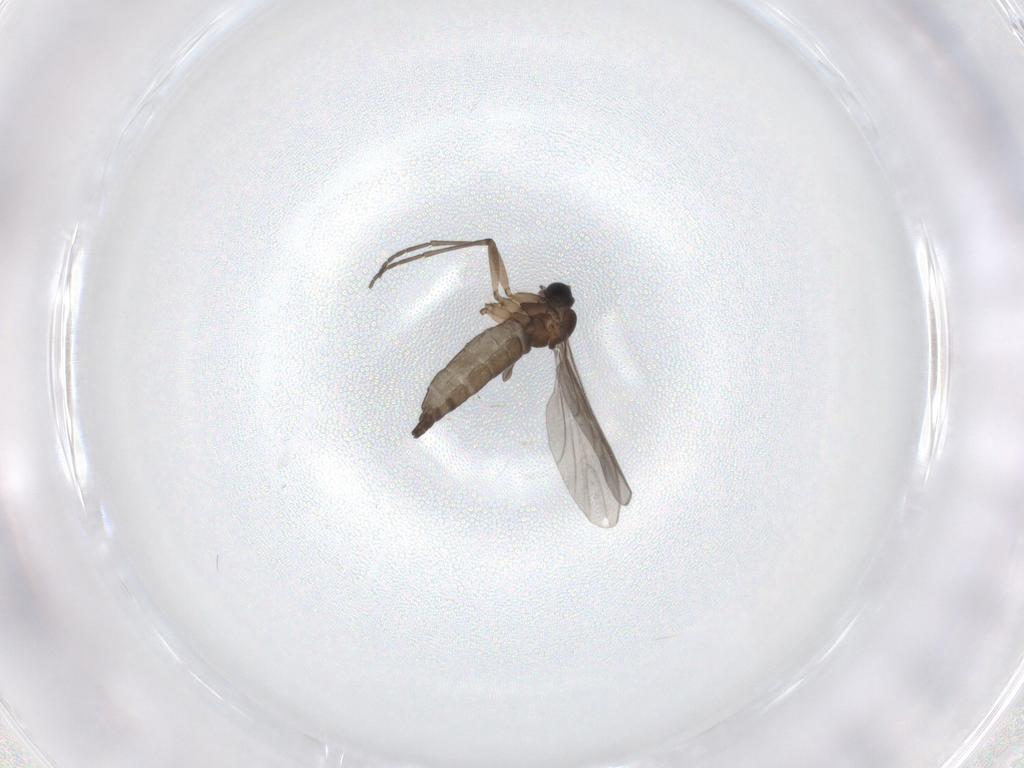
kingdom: Animalia
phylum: Arthropoda
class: Insecta
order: Diptera
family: Sciaridae
